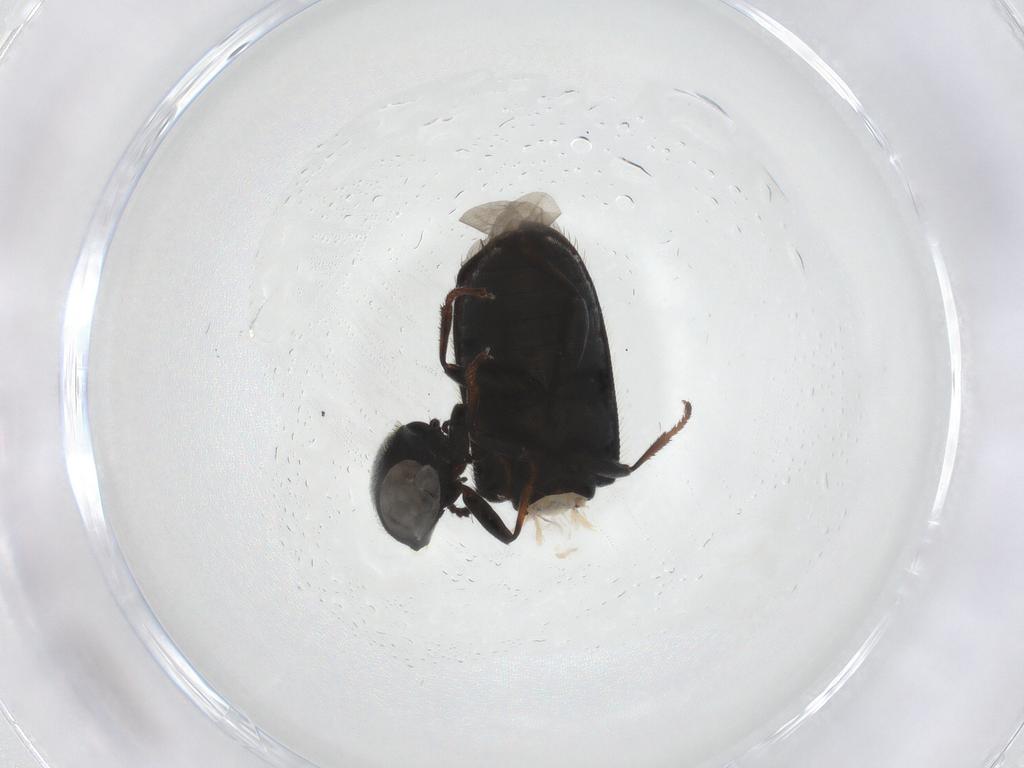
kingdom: Animalia
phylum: Arthropoda
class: Insecta
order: Coleoptera
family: Melyridae
